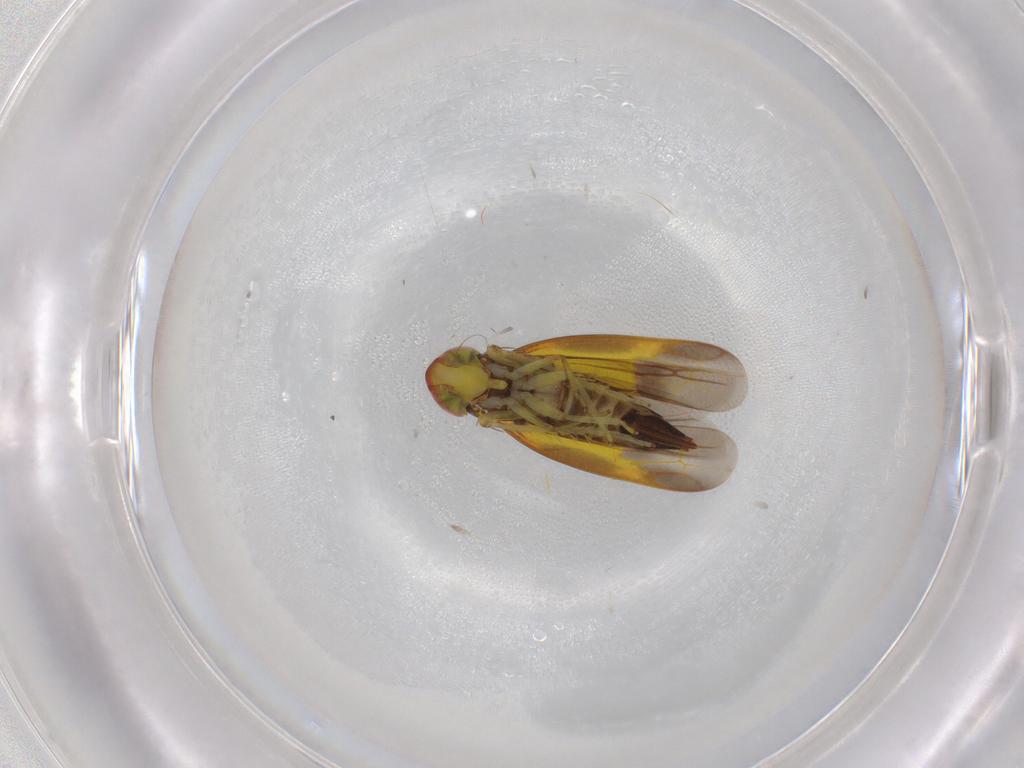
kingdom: Animalia
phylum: Arthropoda
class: Insecta
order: Hemiptera
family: Cicadellidae
